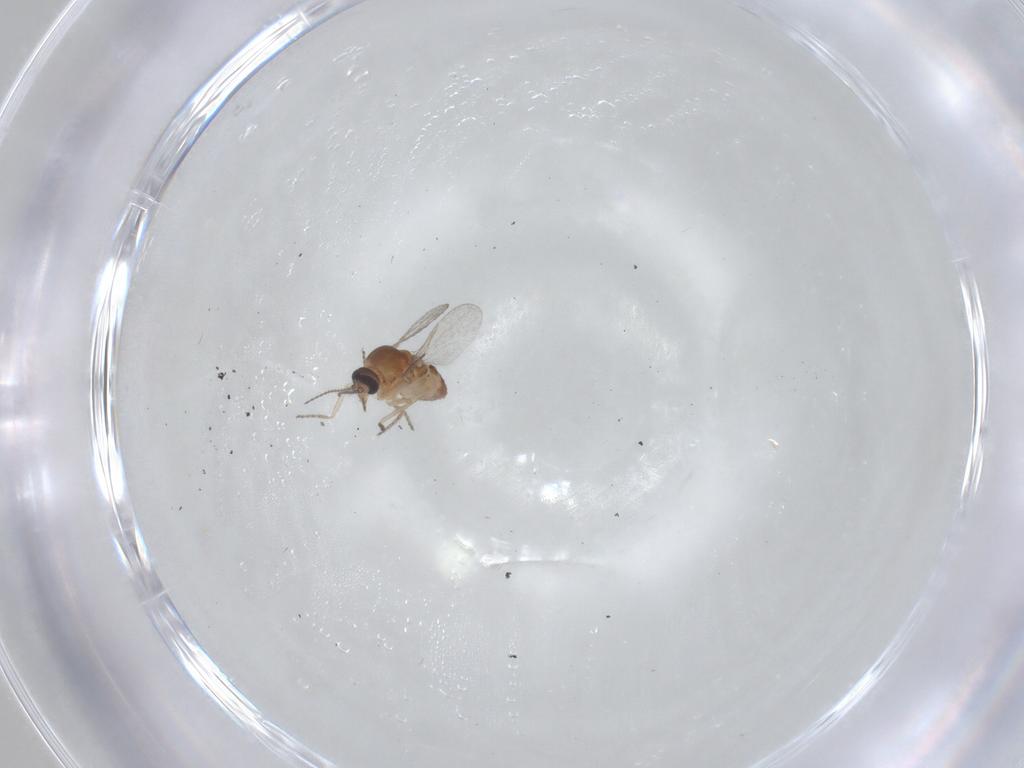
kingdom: Animalia
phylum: Arthropoda
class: Insecta
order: Diptera
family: Ceratopogonidae
